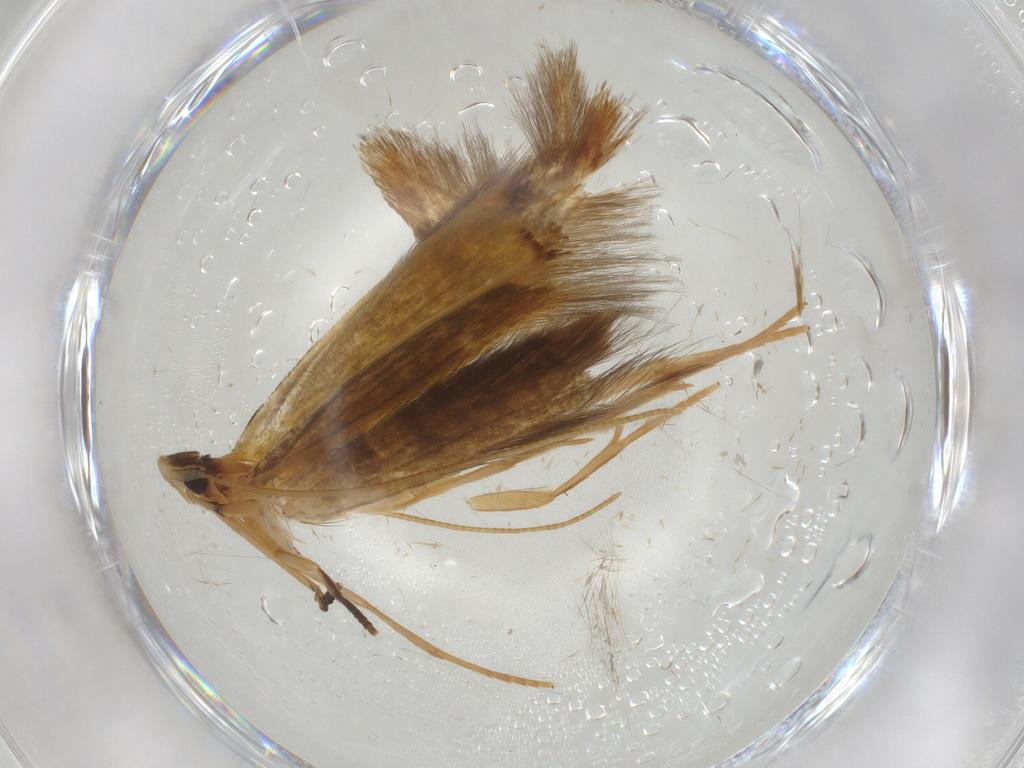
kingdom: Animalia
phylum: Arthropoda
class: Insecta
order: Lepidoptera
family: Tineidae
